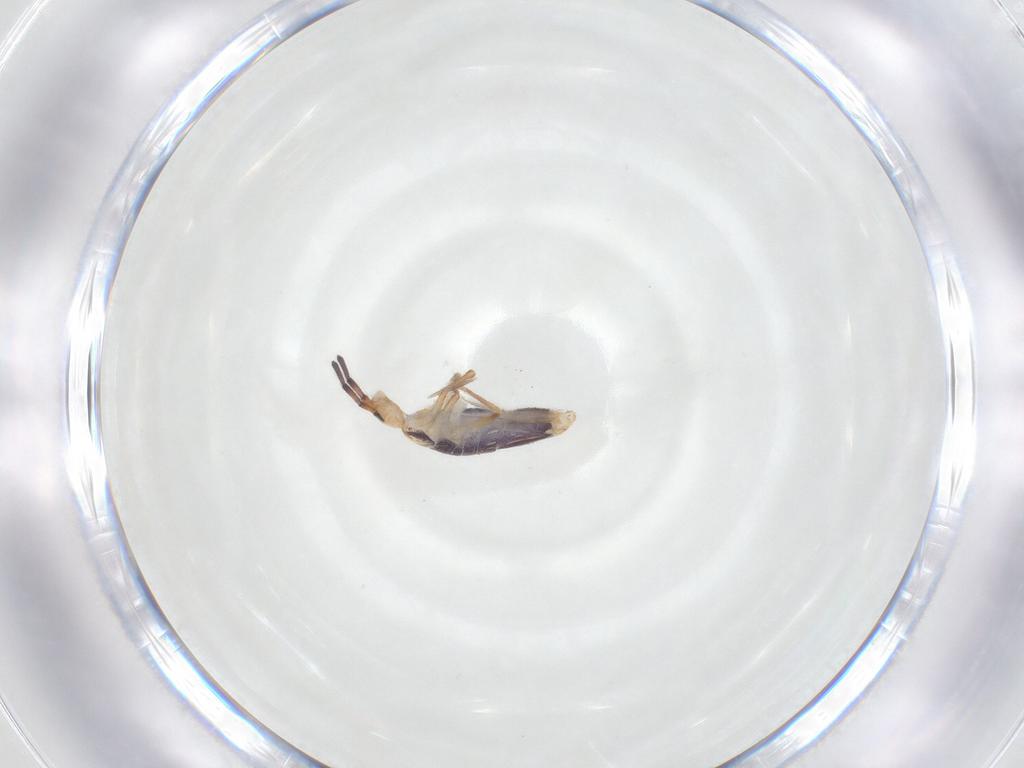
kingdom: Animalia
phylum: Arthropoda
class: Collembola
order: Entomobryomorpha
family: Entomobryidae
